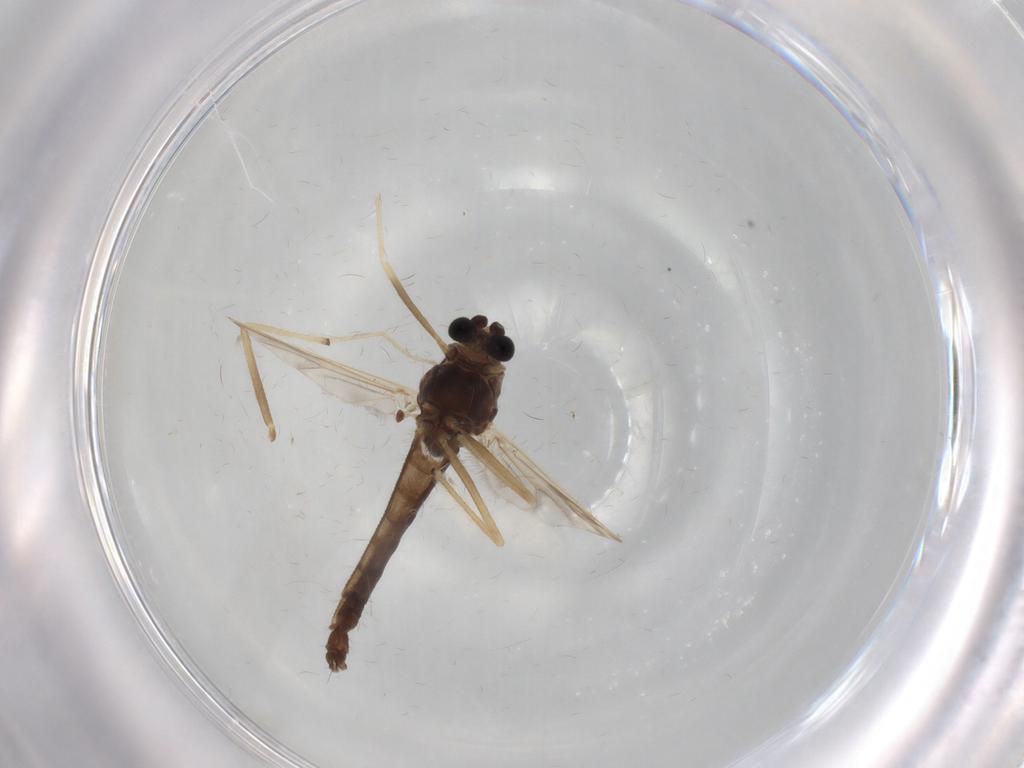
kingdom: Animalia
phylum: Arthropoda
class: Insecta
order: Diptera
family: Chironomidae
